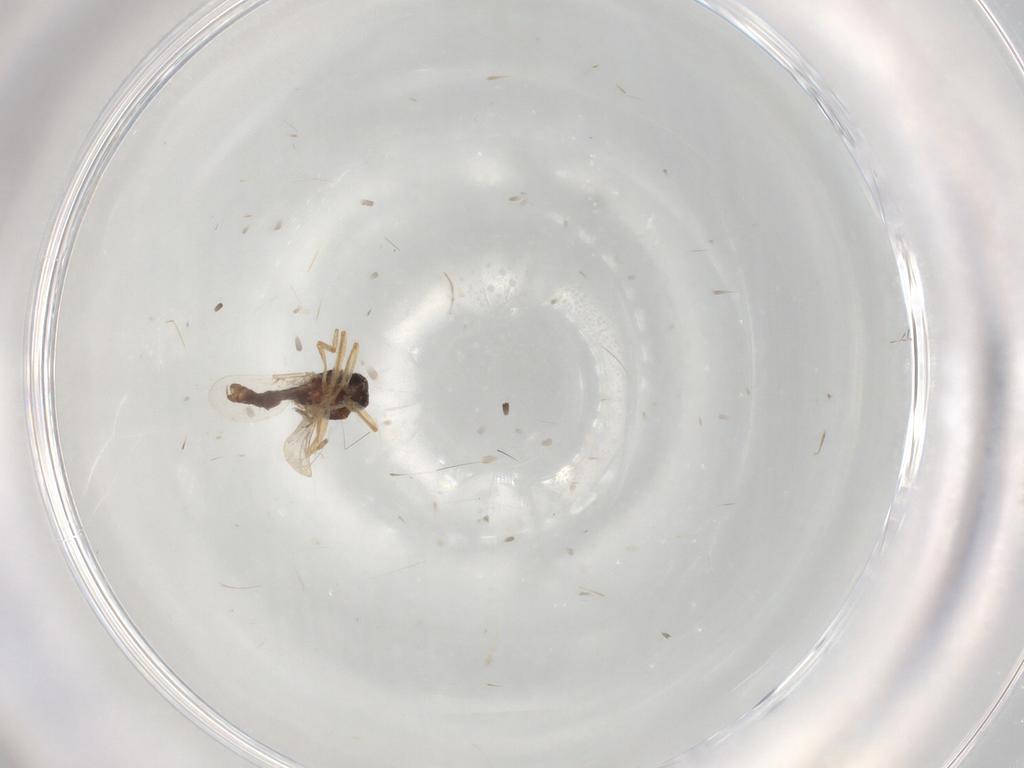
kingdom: Animalia
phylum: Arthropoda
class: Insecta
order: Diptera
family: Ceratopogonidae
